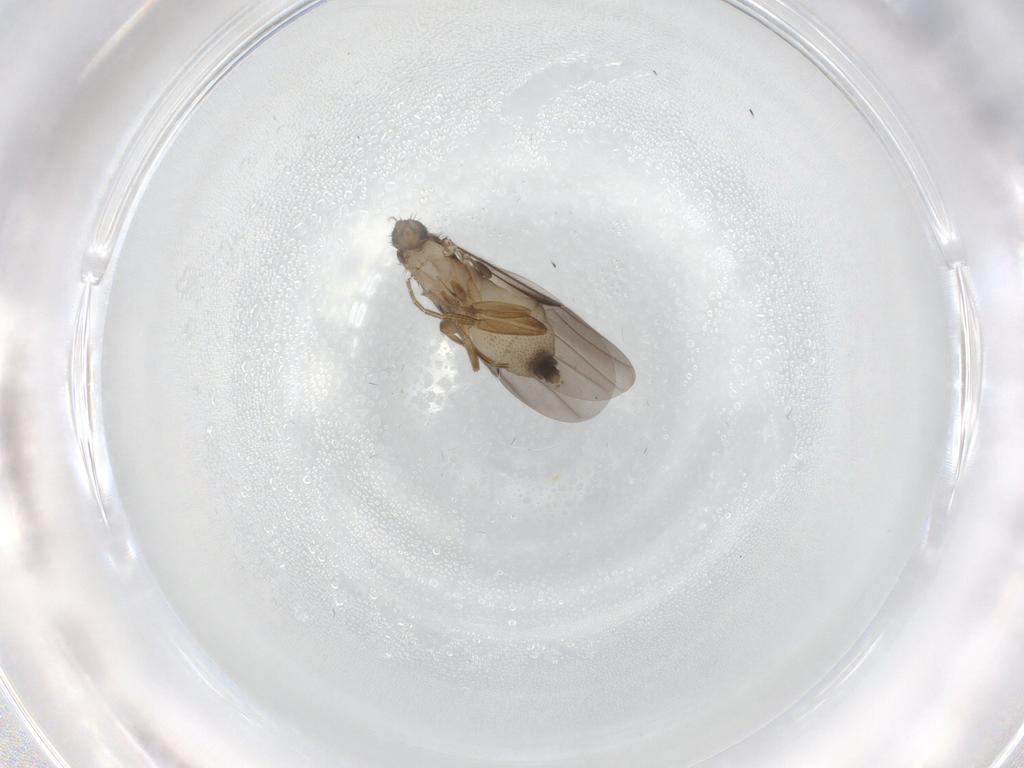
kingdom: Animalia
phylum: Arthropoda
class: Insecta
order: Diptera
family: Phoridae
